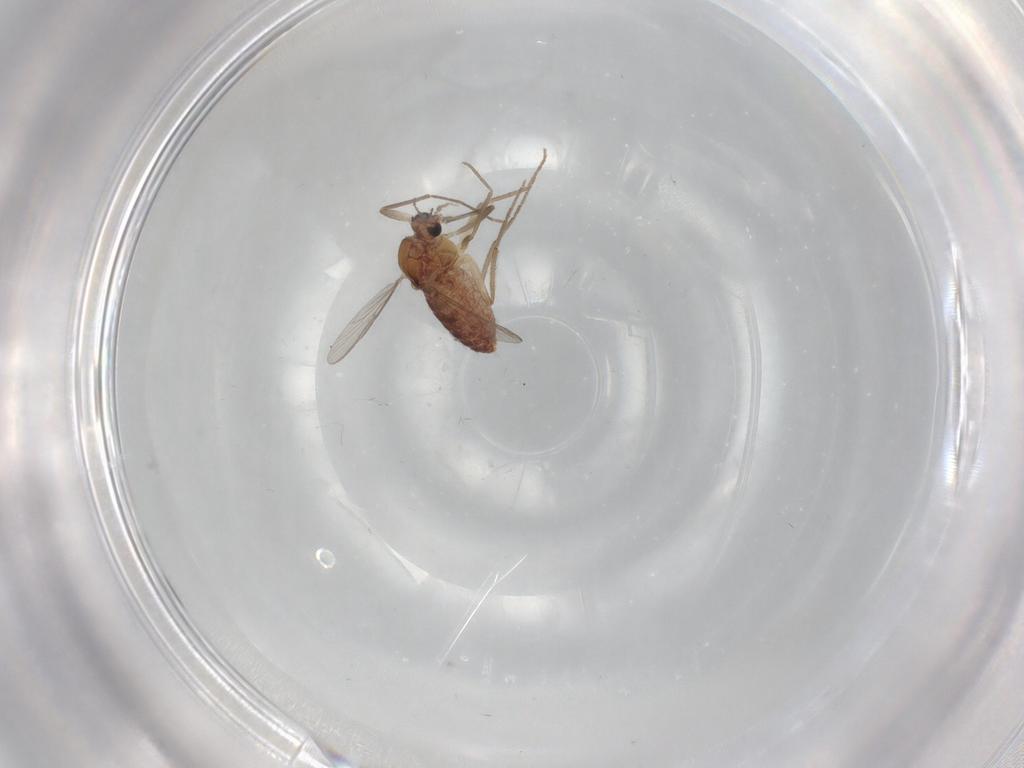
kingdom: Animalia
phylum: Arthropoda
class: Insecta
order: Diptera
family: Chironomidae
